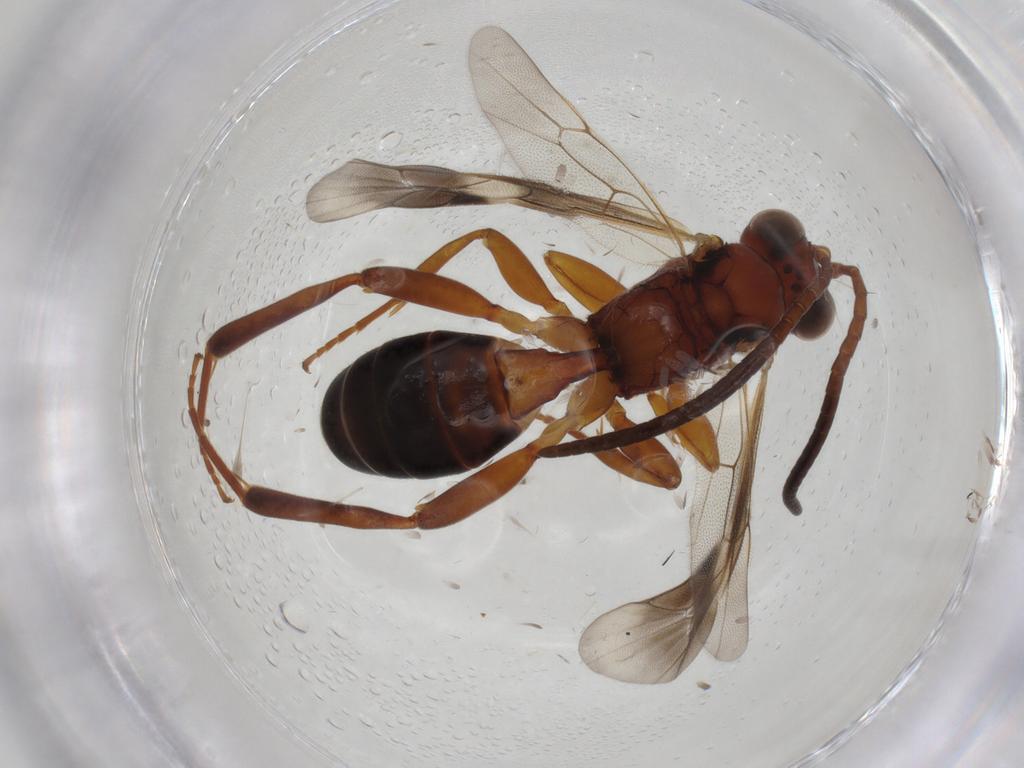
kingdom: Animalia
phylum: Arthropoda
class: Insecta
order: Hymenoptera
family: Ichneumonidae
